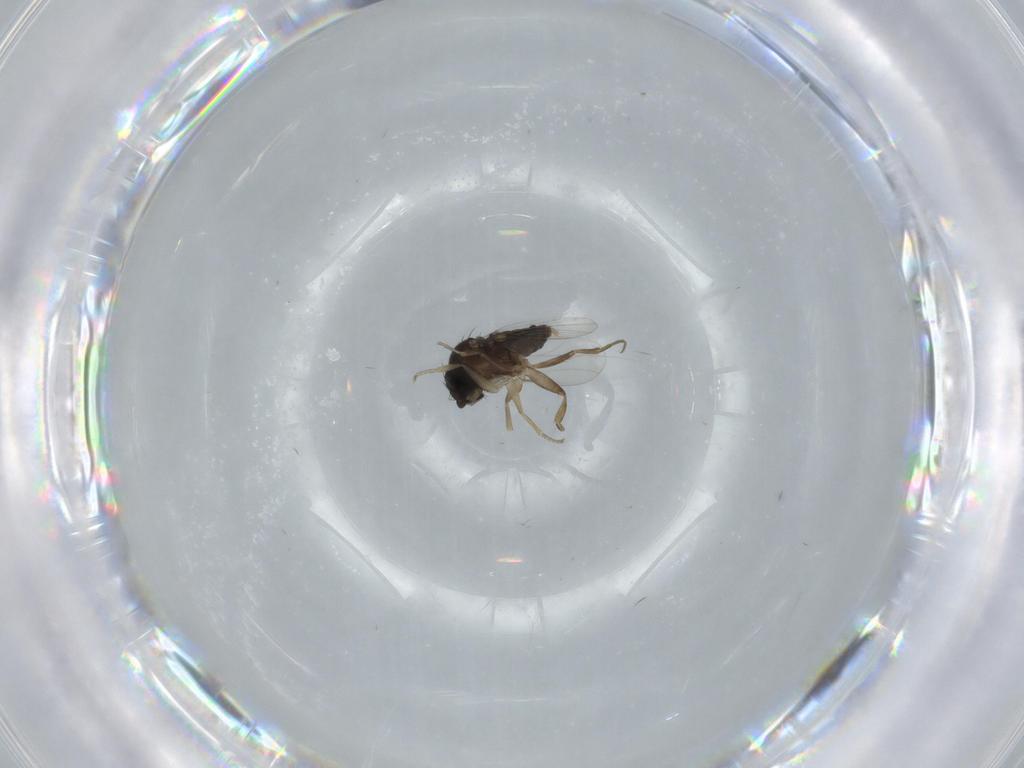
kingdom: Animalia
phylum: Arthropoda
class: Insecta
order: Diptera
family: Phoridae
